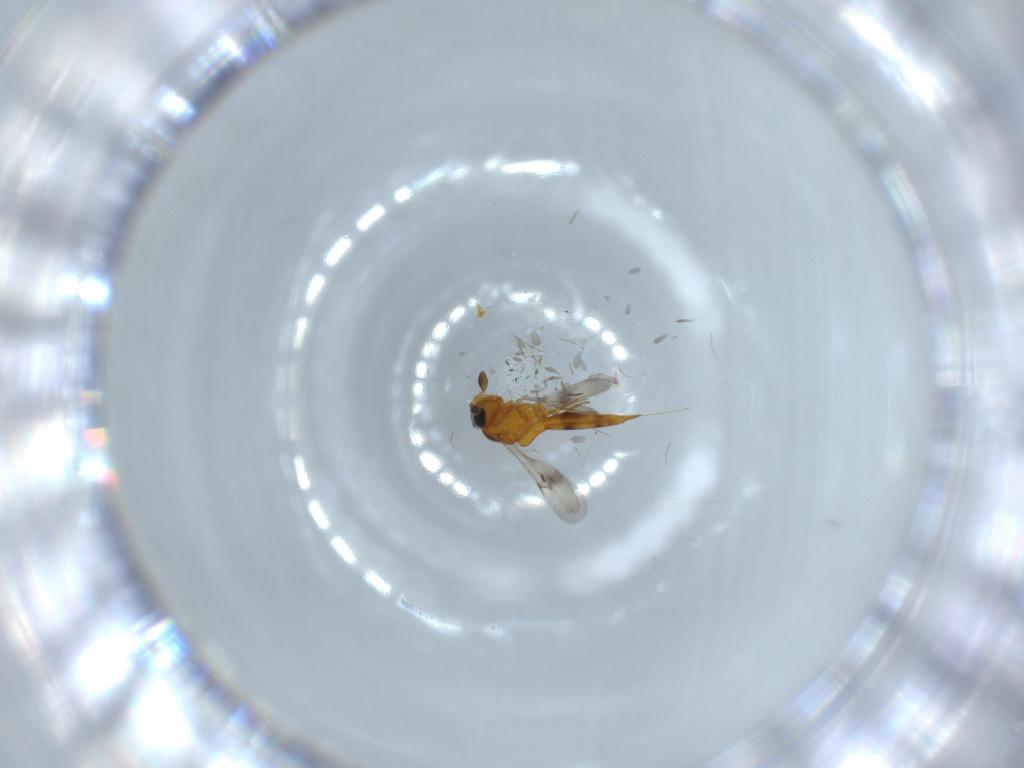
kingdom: Animalia
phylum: Arthropoda
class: Insecta
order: Hymenoptera
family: Scelionidae
